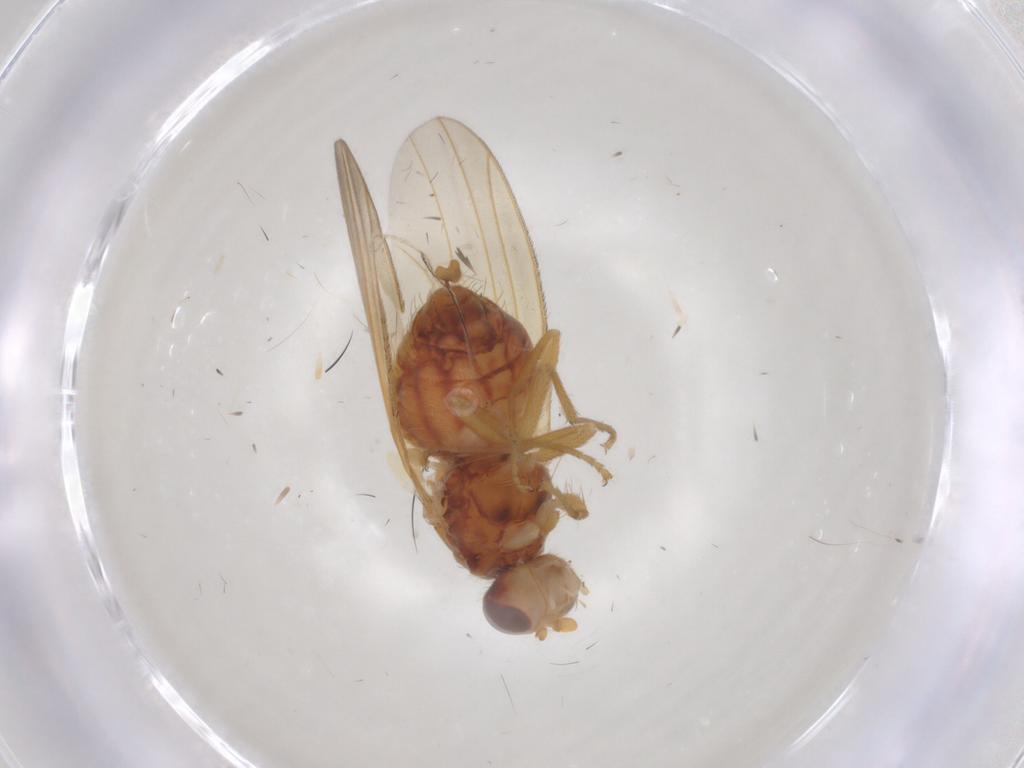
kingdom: Animalia
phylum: Arthropoda
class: Insecta
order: Diptera
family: Heleomyzidae
